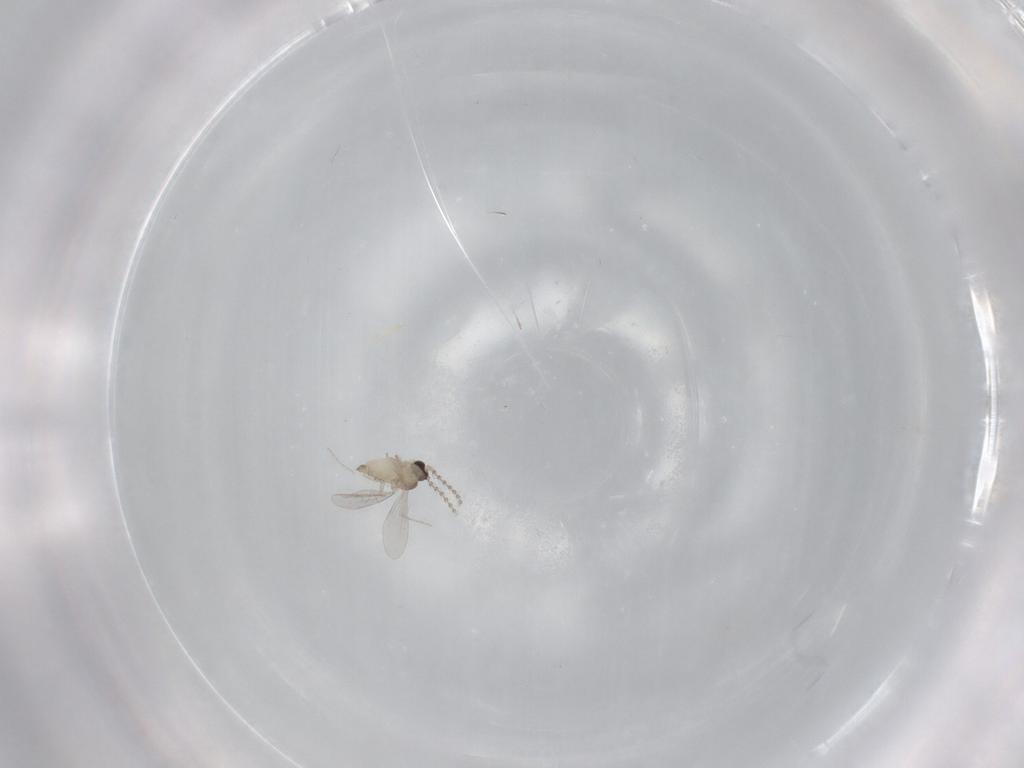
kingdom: Animalia
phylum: Arthropoda
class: Insecta
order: Diptera
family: Cecidomyiidae
